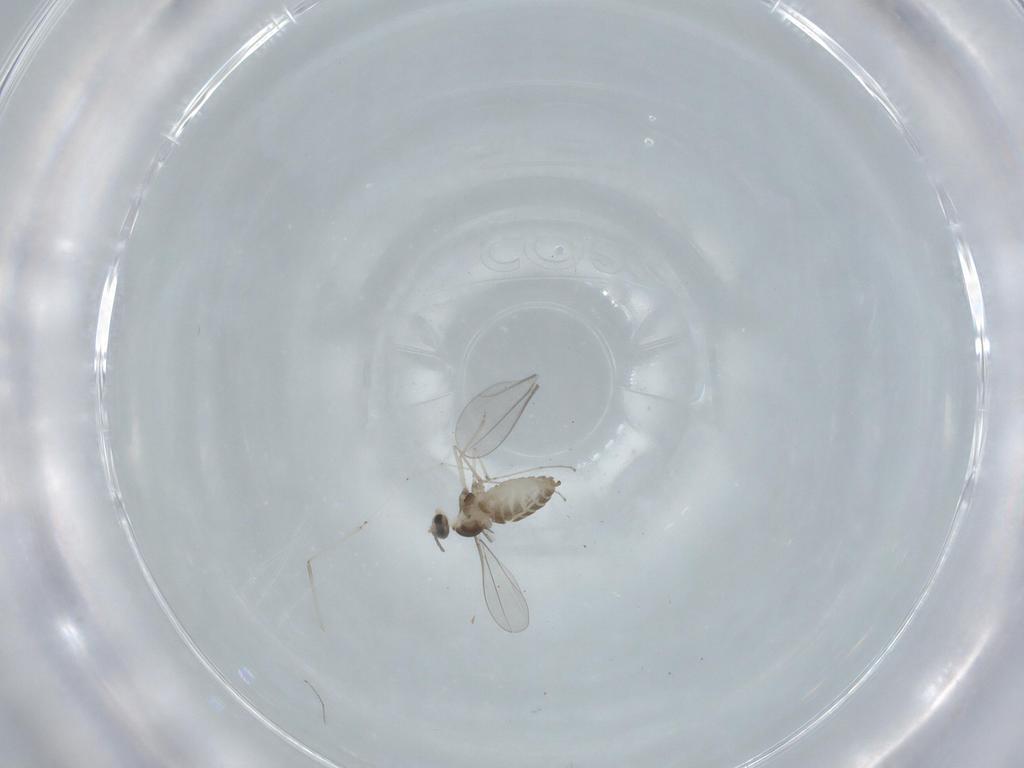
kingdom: Animalia
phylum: Arthropoda
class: Insecta
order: Diptera
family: Cecidomyiidae
